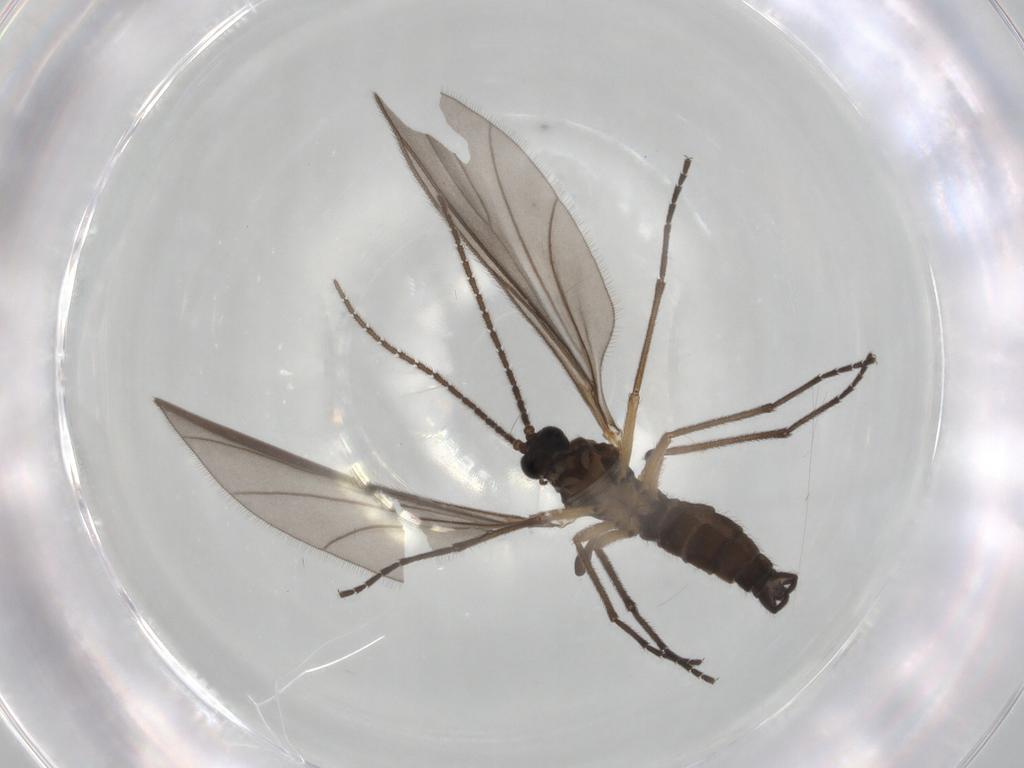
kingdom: Animalia
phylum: Arthropoda
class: Insecta
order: Diptera
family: Sciaridae
